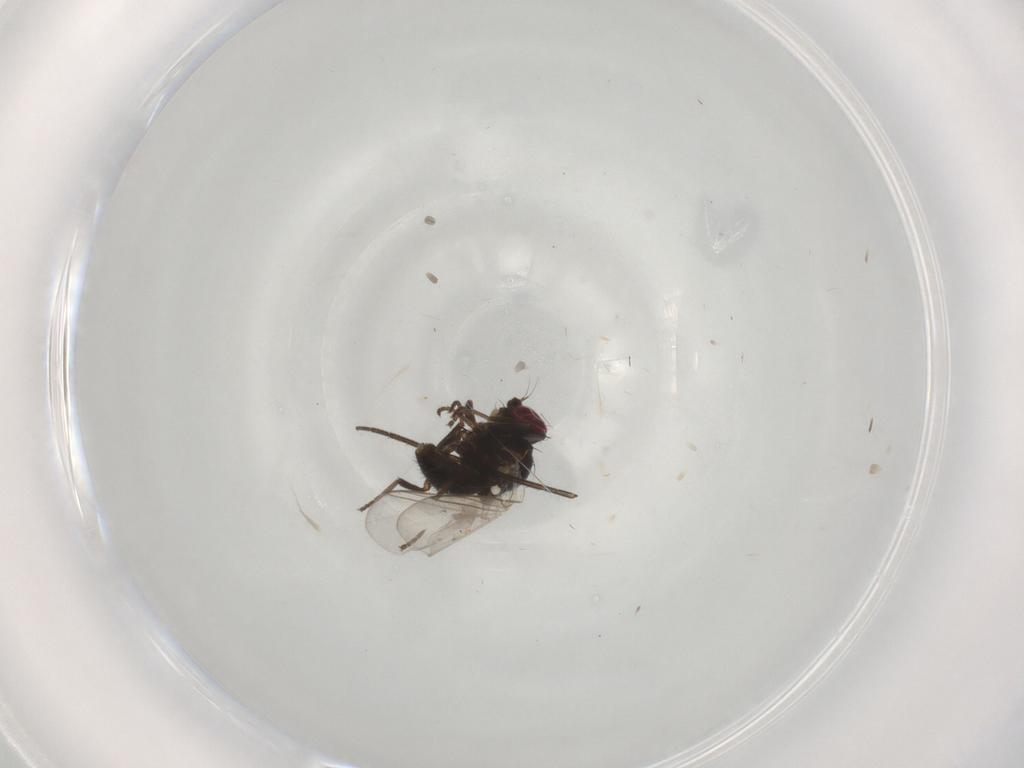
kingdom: Animalia
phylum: Arthropoda
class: Insecta
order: Diptera
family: Agromyzidae
